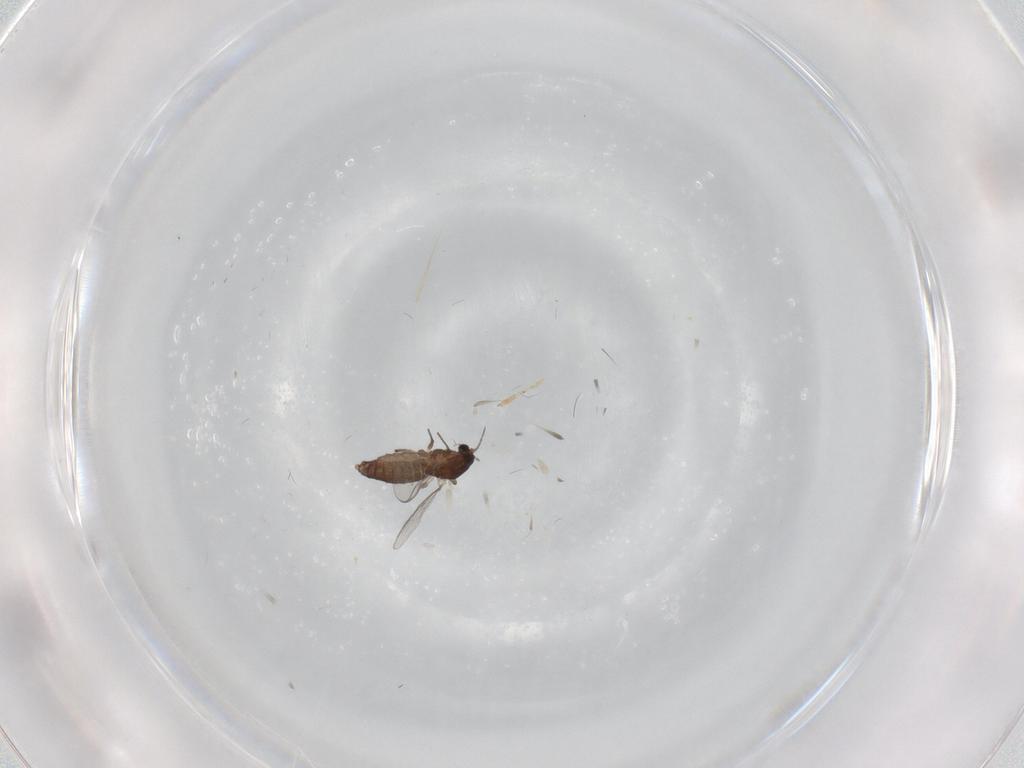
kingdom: Animalia
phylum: Arthropoda
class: Insecta
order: Diptera
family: Chironomidae
